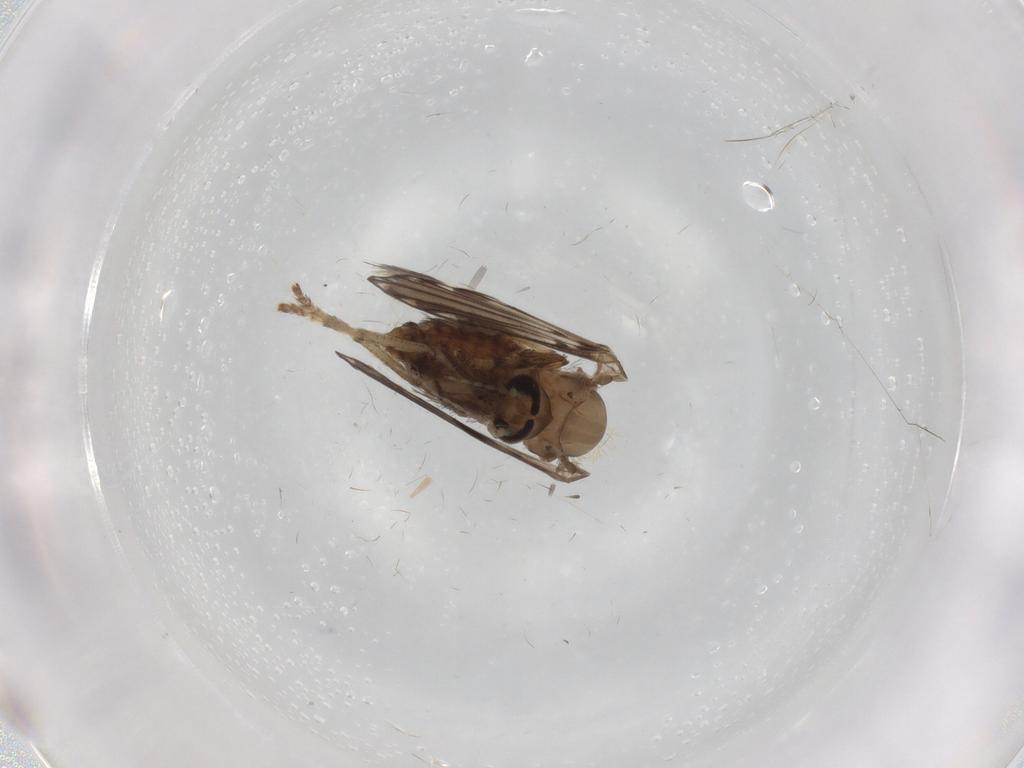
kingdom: Animalia
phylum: Arthropoda
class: Insecta
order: Diptera
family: Psychodidae
